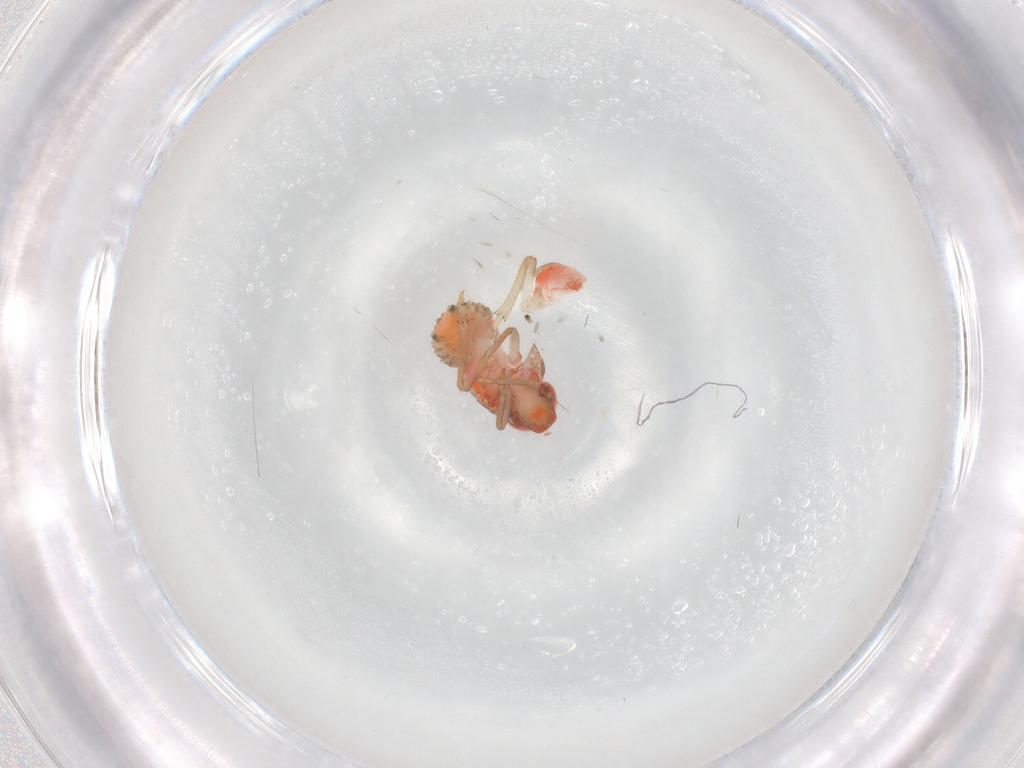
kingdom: Animalia
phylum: Arthropoda
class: Insecta
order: Hemiptera
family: Issidae
